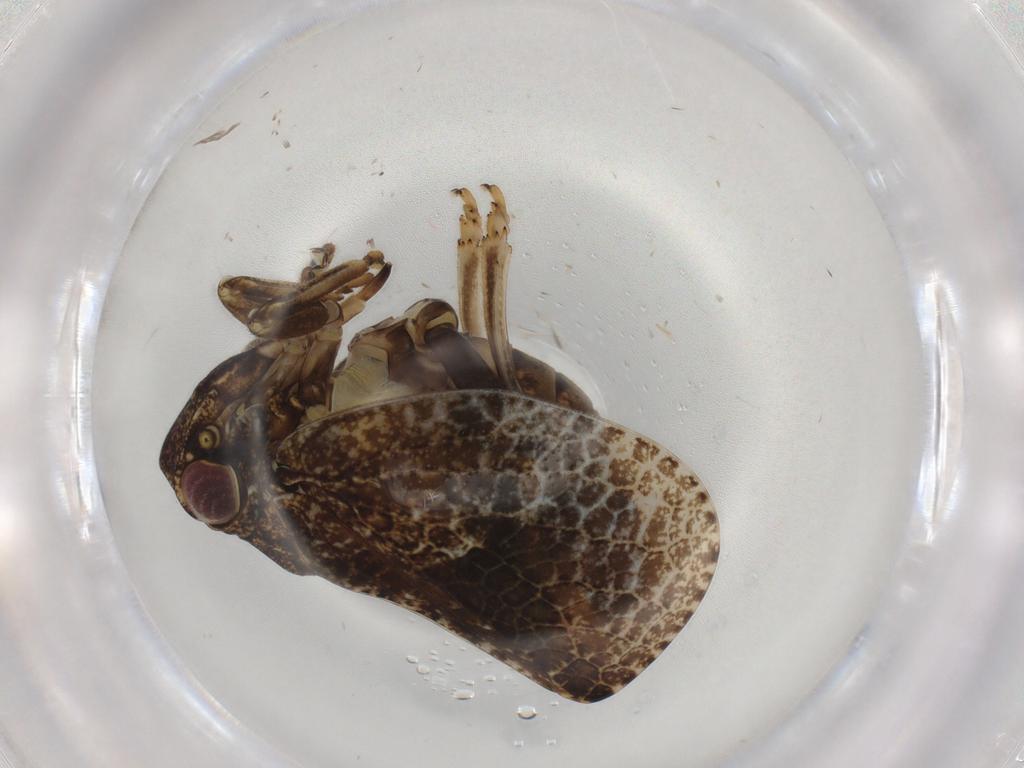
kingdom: Animalia
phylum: Arthropoda
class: Insecta
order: Hemiptera
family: Acanaloniidae
